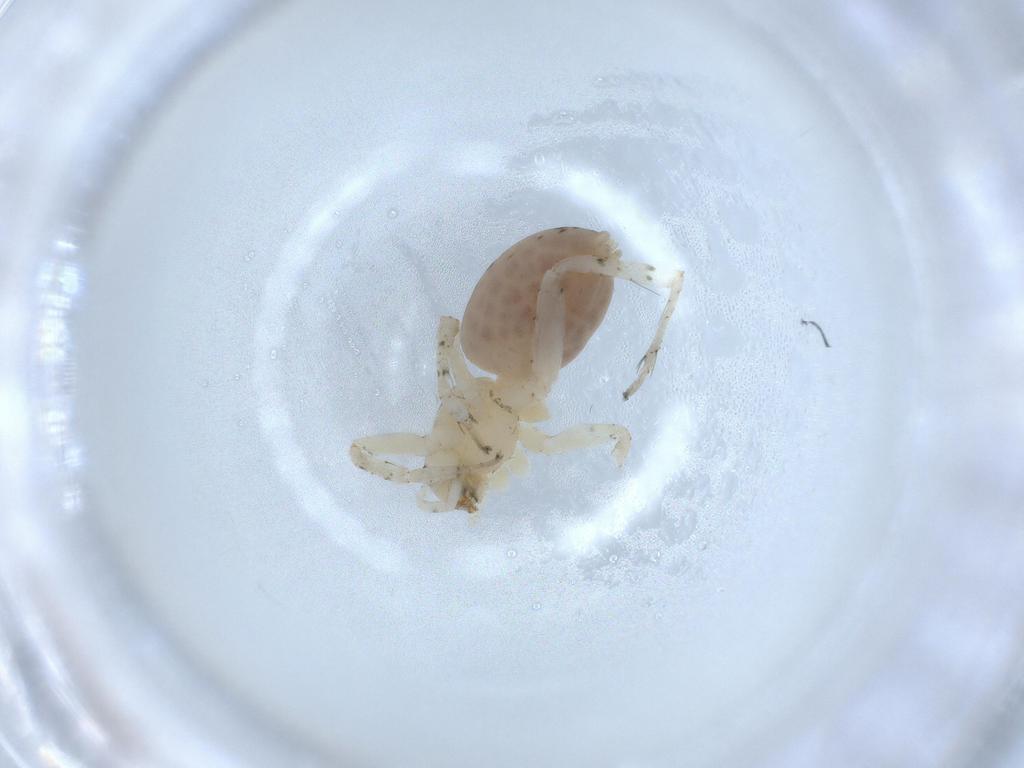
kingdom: Animalia
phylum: Arthropoda
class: Arachnida
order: Araneae
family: Anyphaenidae
